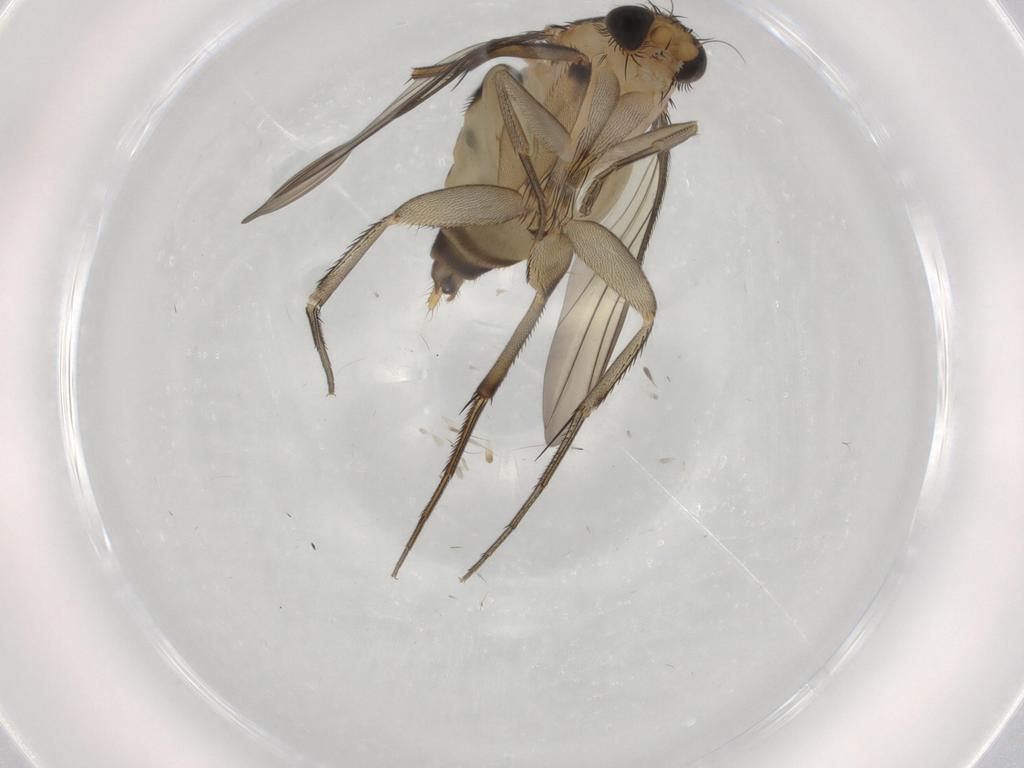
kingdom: Animalia
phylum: Arthropoda
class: Insecta
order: Diptera
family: Phoridae
